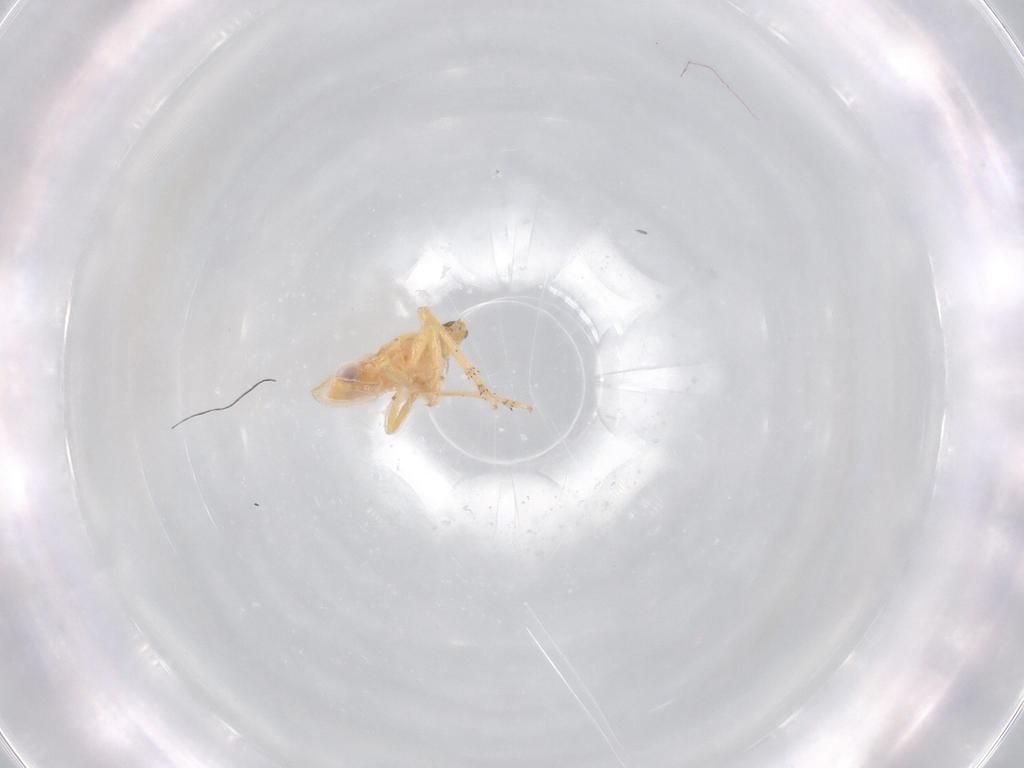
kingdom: Animalia
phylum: Arthropoda
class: Insecta
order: Hemiptera
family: Tropiduchidae
